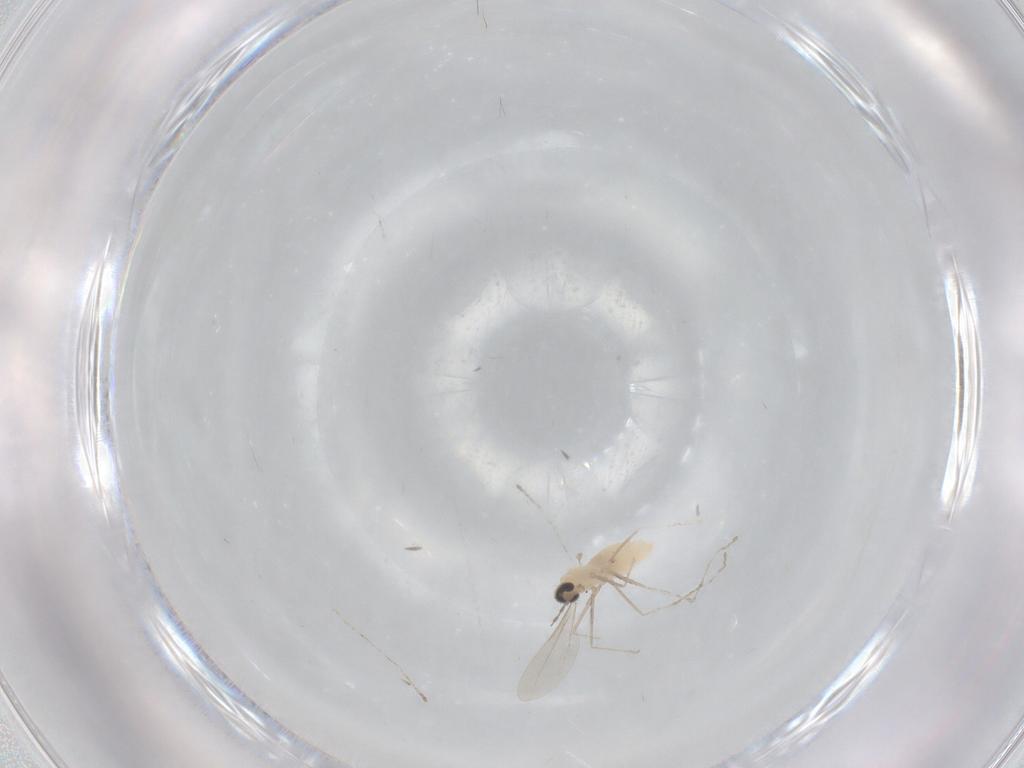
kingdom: Animalia
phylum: Arthropoda
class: Insecta
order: Diptera
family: Cecidomyiidae
